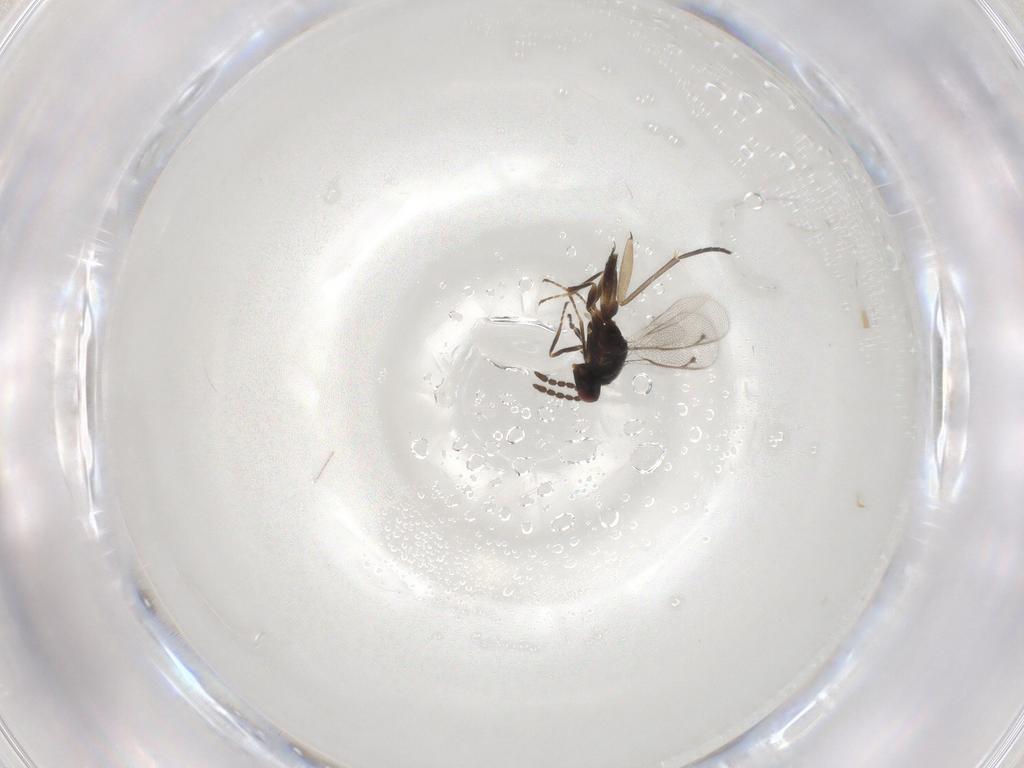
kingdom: Animalia
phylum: Arthropoda
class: Insecta
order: Hymenoptera
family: Eulophidae
